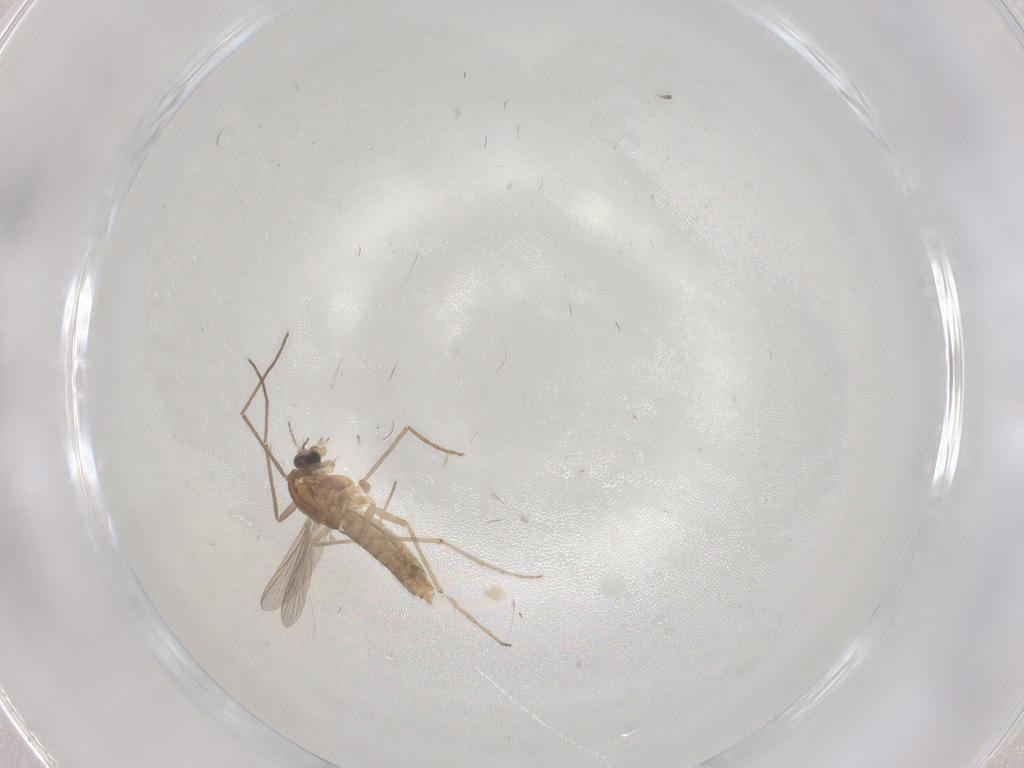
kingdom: Animalia
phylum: Arthropoda
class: Insecta
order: Diptera
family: Chironomidae
